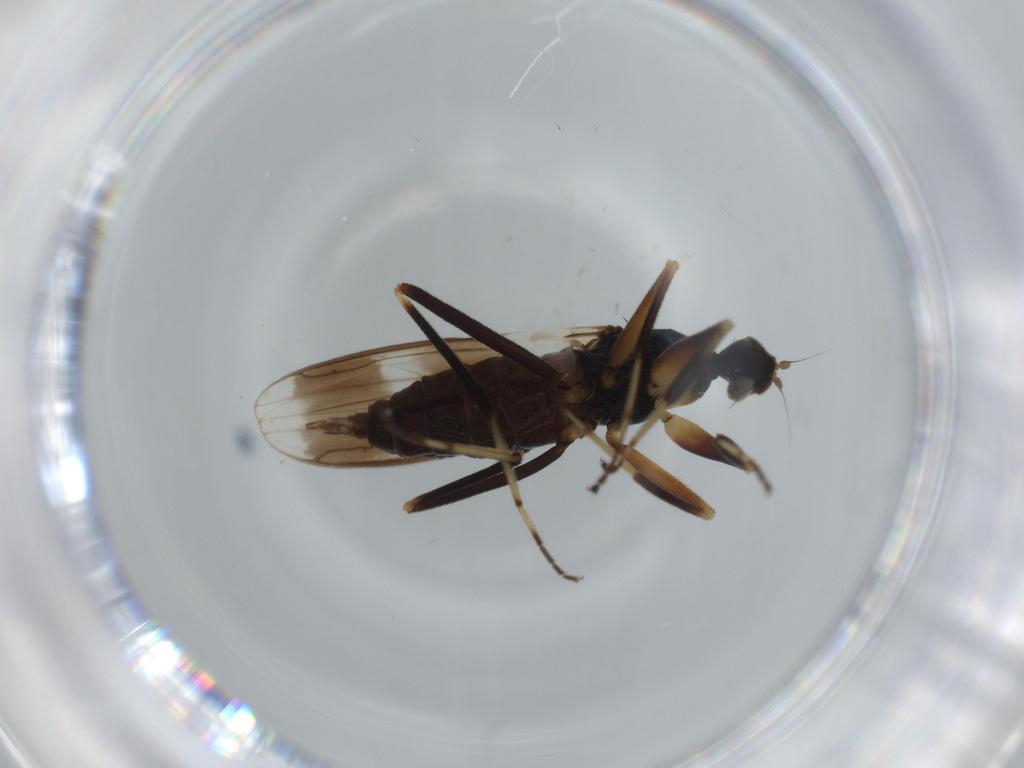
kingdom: Animalia
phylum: Arthropoda
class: Insecta
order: Diptera
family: Hybotidae
